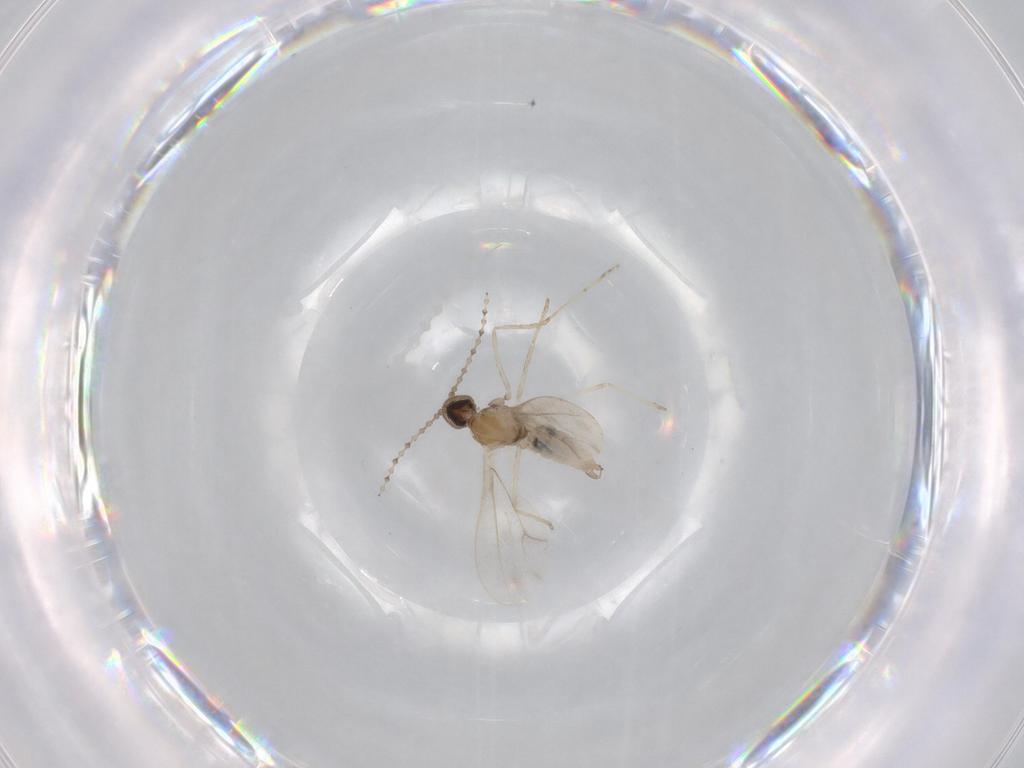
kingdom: Animalia
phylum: Arthropoda
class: Insecta
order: Diptera
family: Cecidomyiidae
